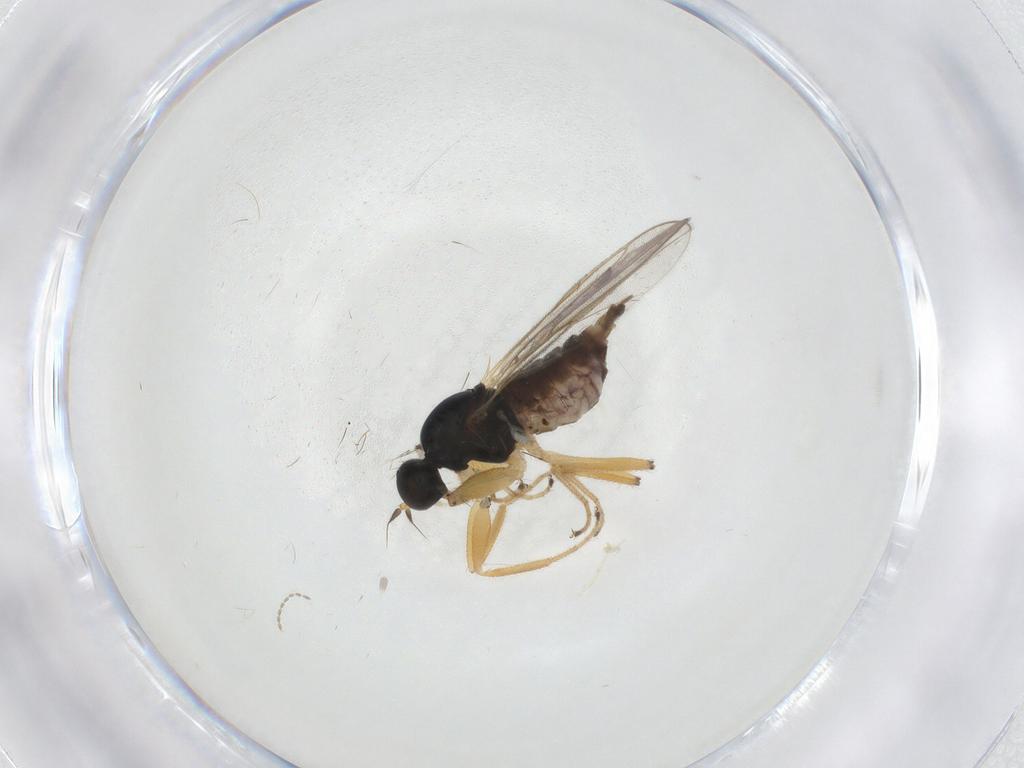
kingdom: Animalia
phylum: Arthropoda
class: Insecta
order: Diptera
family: Hybotidae
